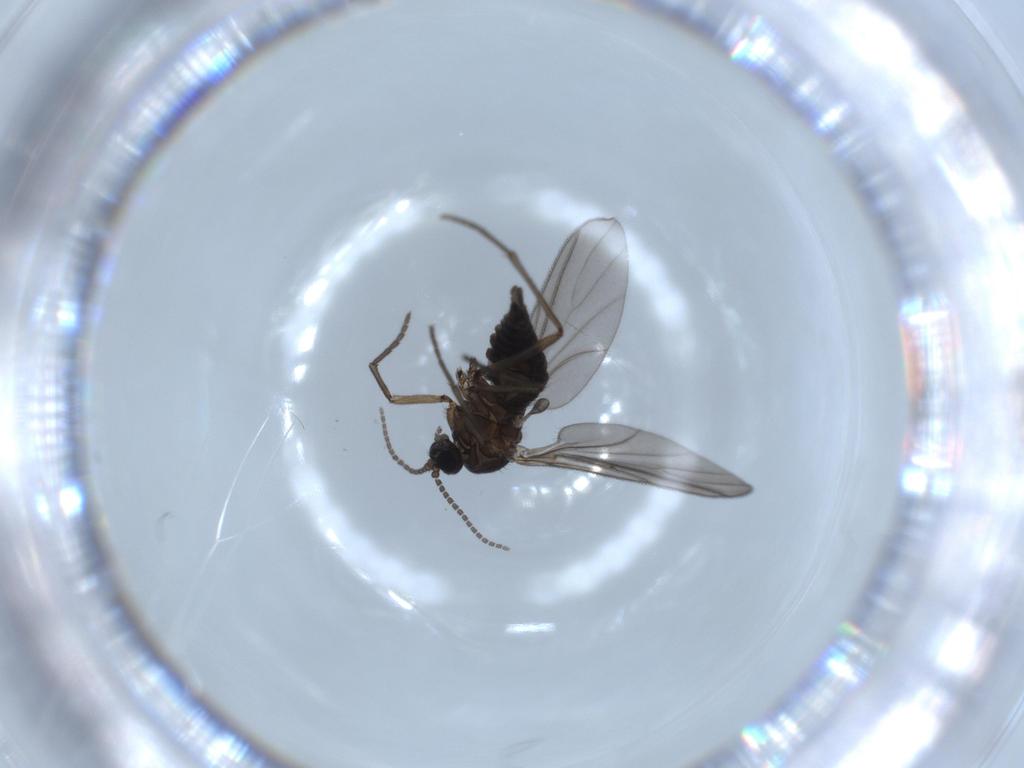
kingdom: Animalia
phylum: Arthropoda
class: Insecta
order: Diptera
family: Sciaridae
